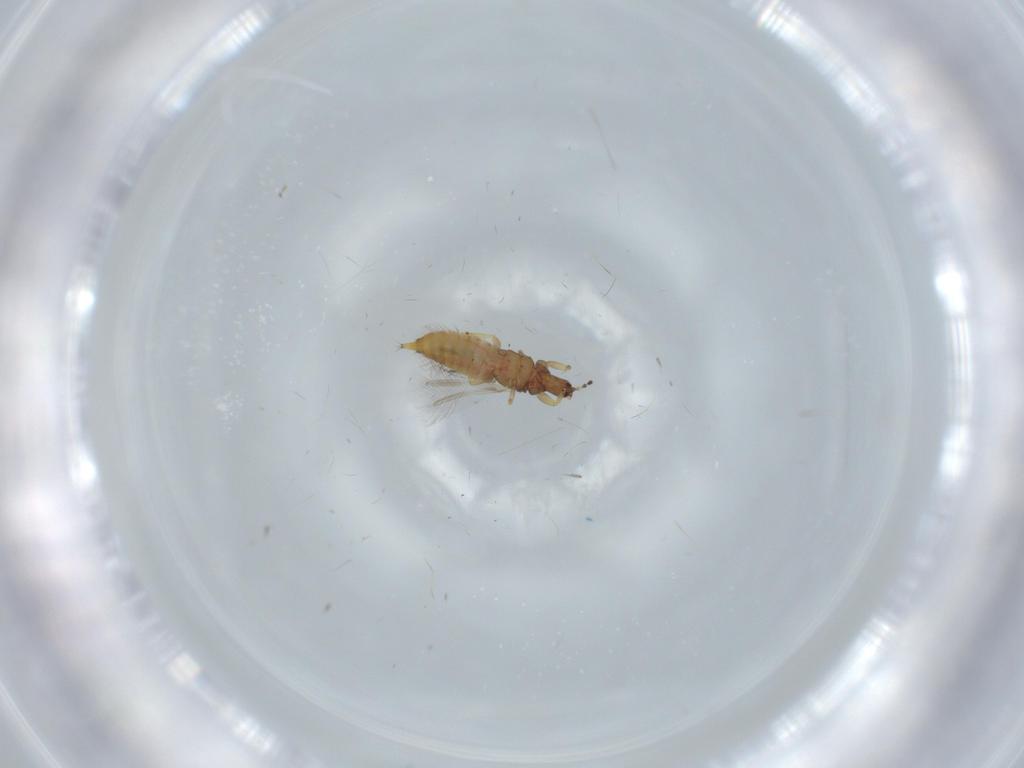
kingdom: Animalia
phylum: Arthropoda
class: Insecta
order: Thysanoptera
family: Phlaeothripidae
